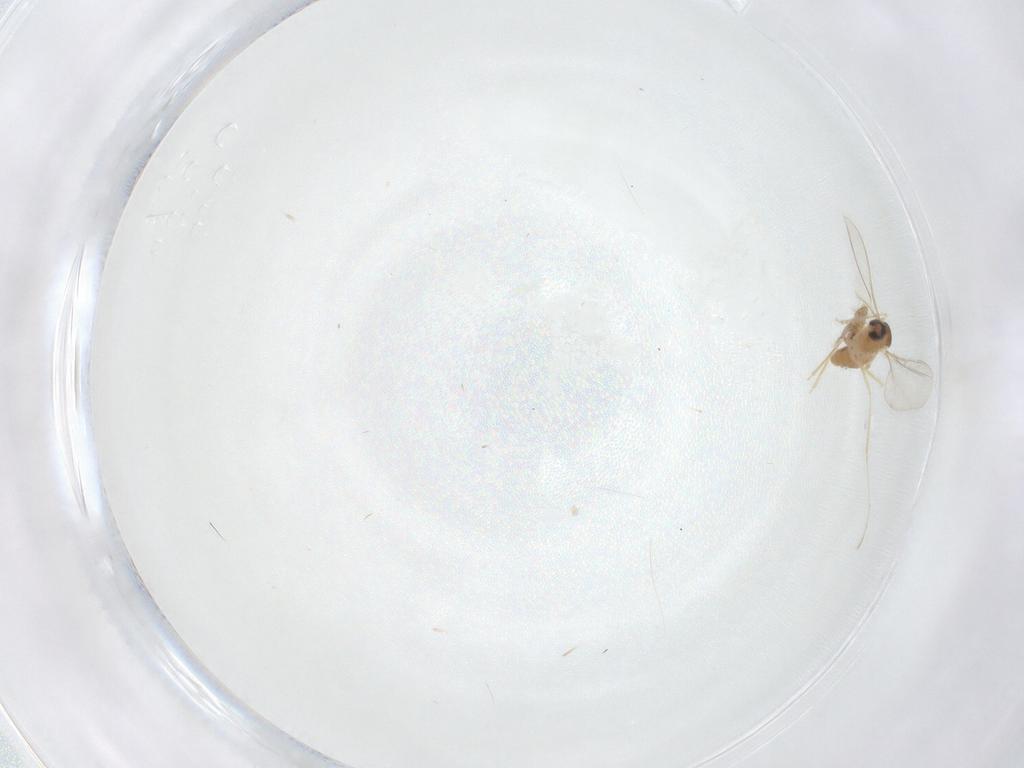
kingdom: Animalia
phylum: Arthropoda
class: Insecta
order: Diptera
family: Cecidomyiidae
